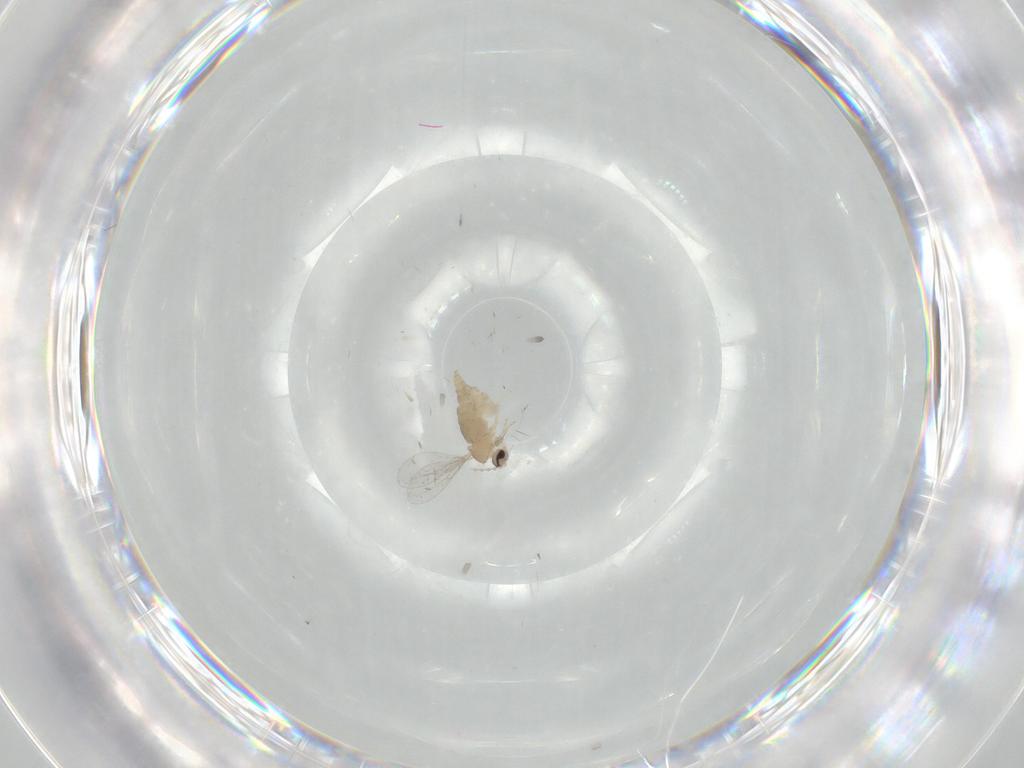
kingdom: Animalia
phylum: Arthropoda
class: Insecta
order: Diptera
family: Cecidomyiidae
